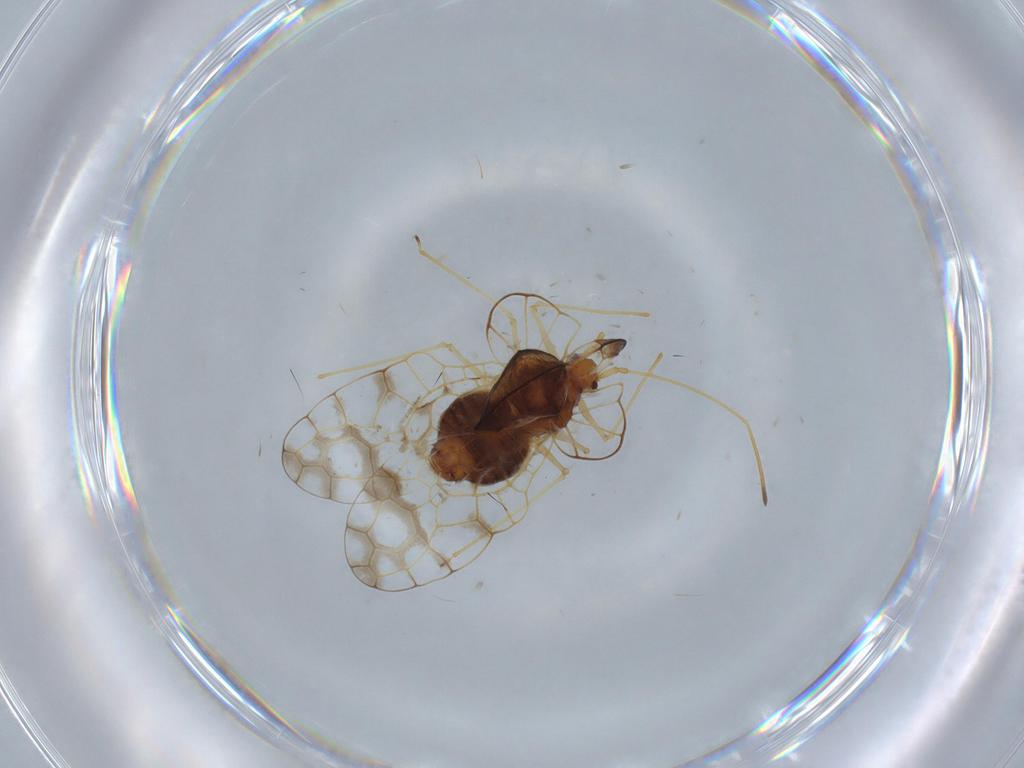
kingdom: Animalia
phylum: Arthropoda
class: Insecta
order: Hemiptera
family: Tingidae
